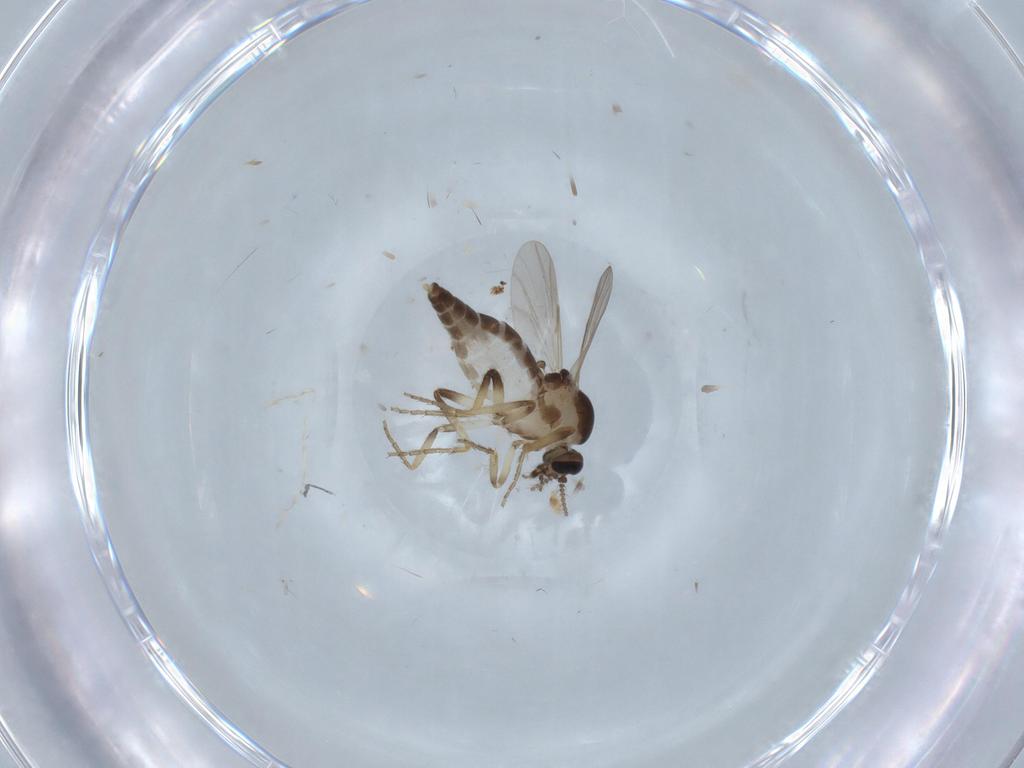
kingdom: Animalia
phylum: Arthropoda
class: Insecta
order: Diptera
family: Ceratopogonidae
